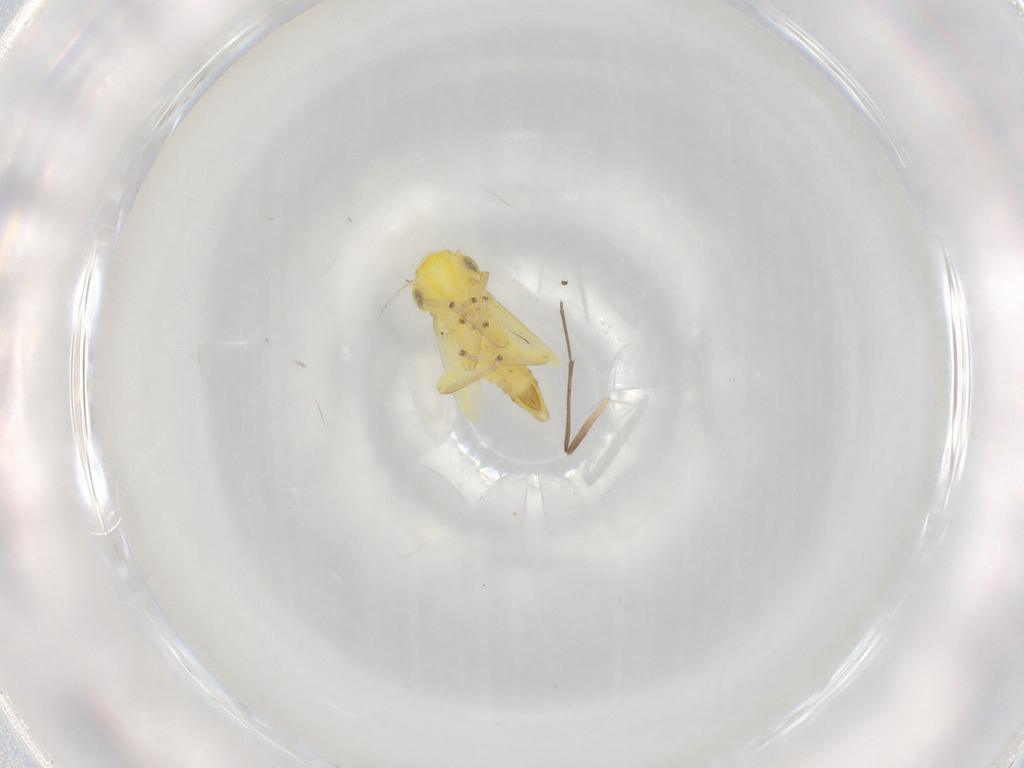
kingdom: Animalia
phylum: Arthropoda
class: Insecta
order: Hemiptera
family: Cicadellidae
